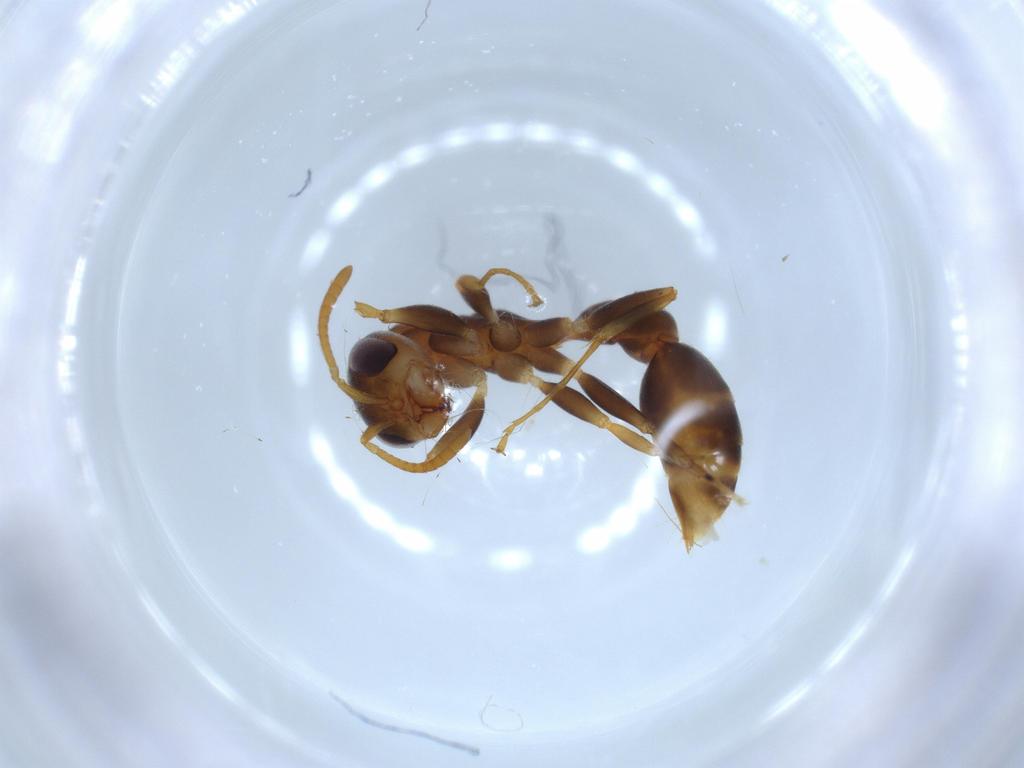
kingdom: Animalia
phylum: Arthropoda
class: Insecta
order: Hymenoptera
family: Formicidae
